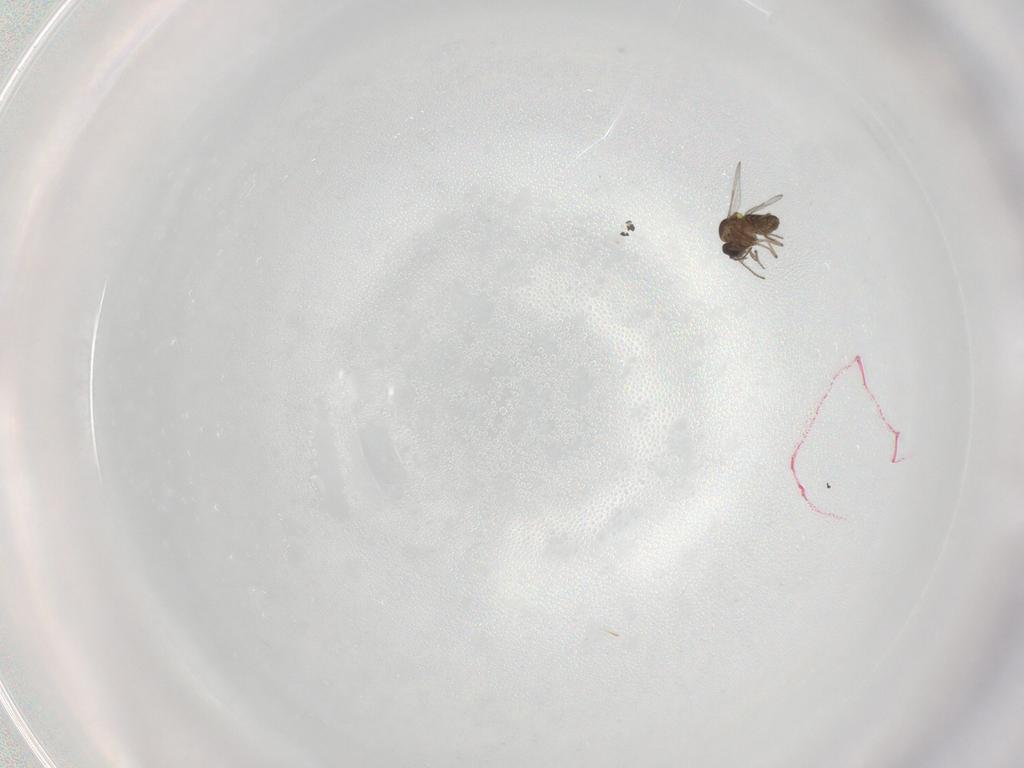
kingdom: Animalia
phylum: Arthropoda
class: Insecta
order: Diptera
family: Ceratopogonidae
